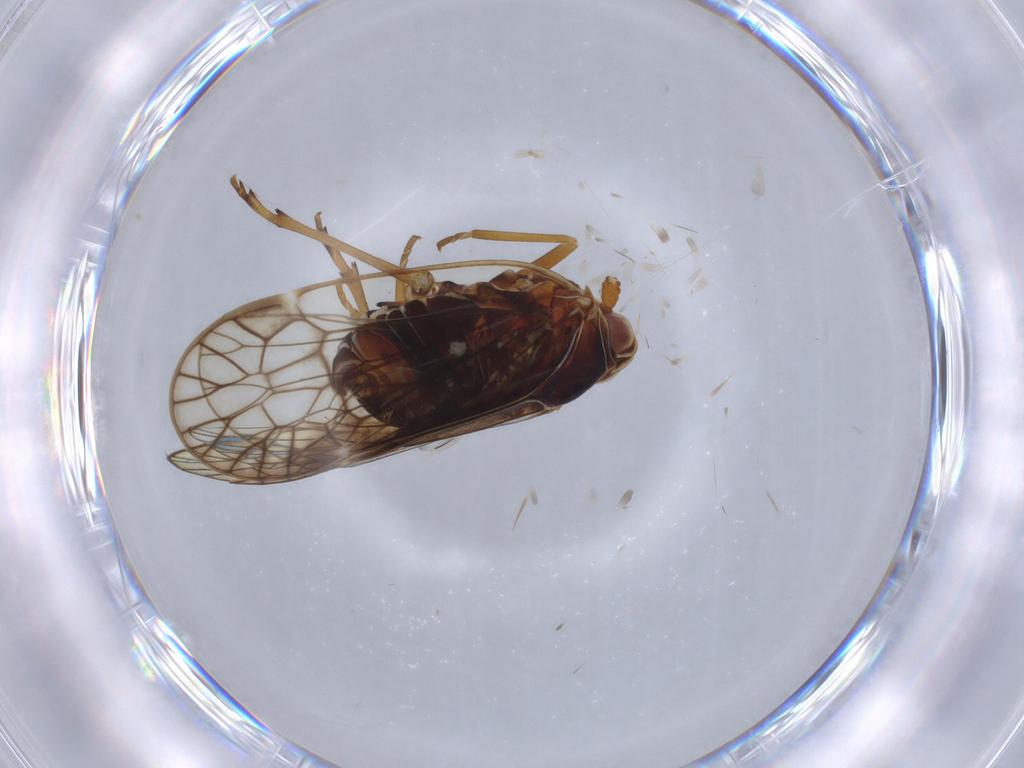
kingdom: Animalia
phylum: Arthropoda
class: Insecta
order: Hemiptera
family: Kinnaridae
